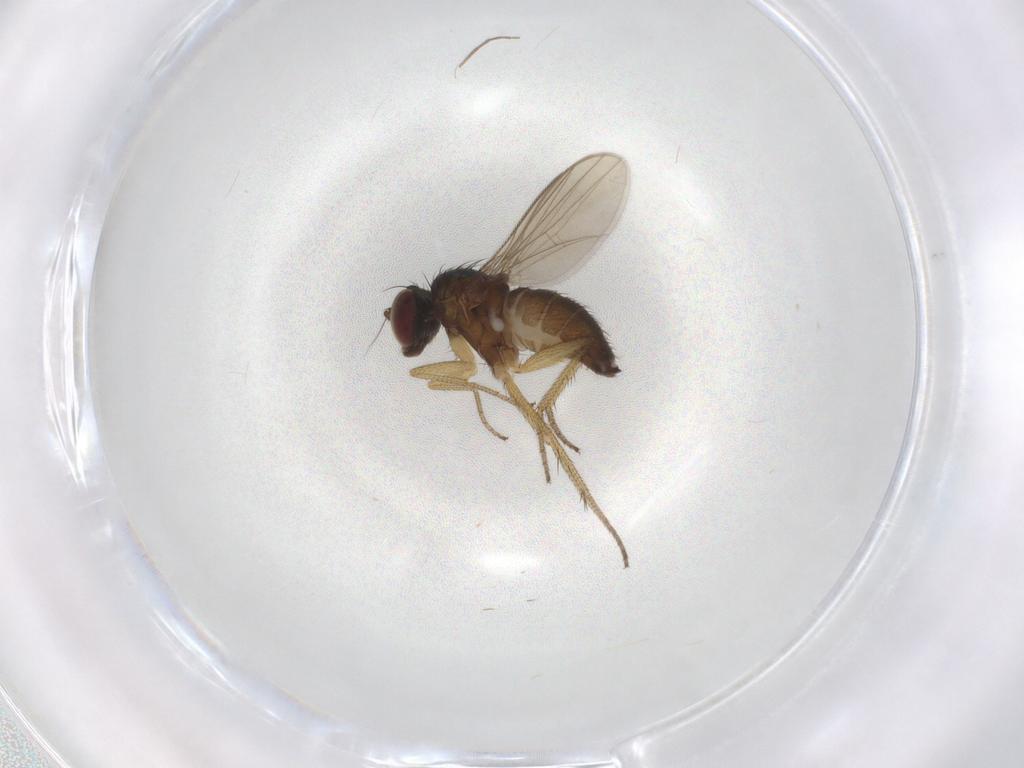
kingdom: Animalia
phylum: Arthropoda
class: Insecta
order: Diptera
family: Dolichopodidae
